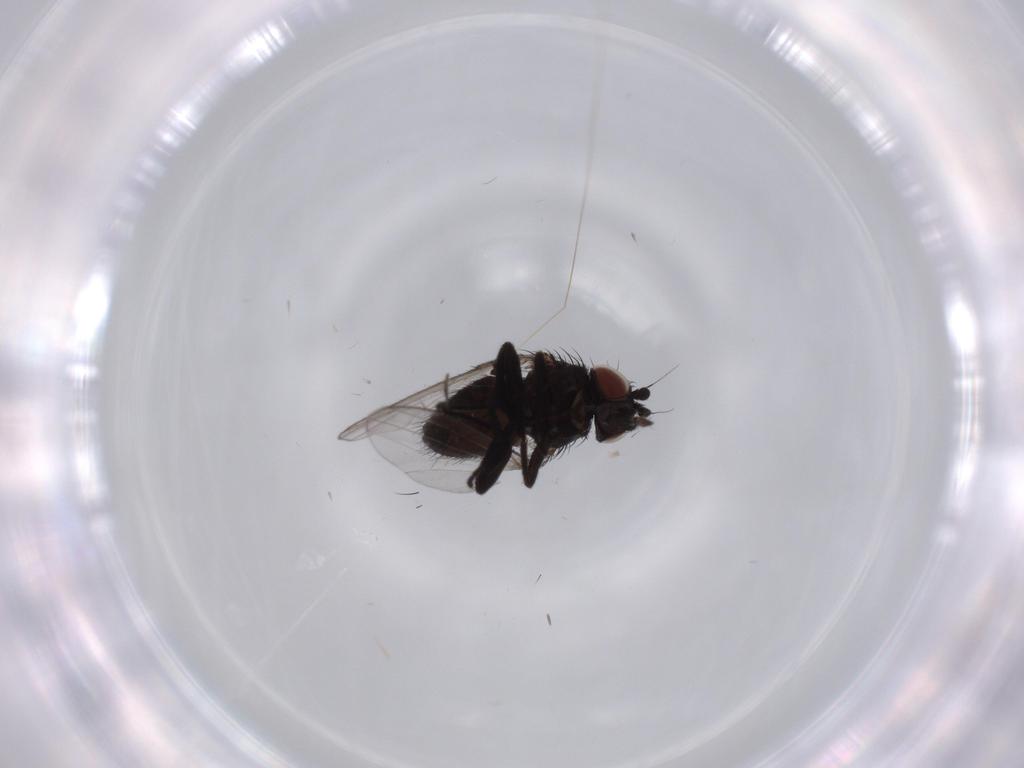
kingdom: Animalia
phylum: Arthropoda
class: Insecta
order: Diptera
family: Milichiidae
